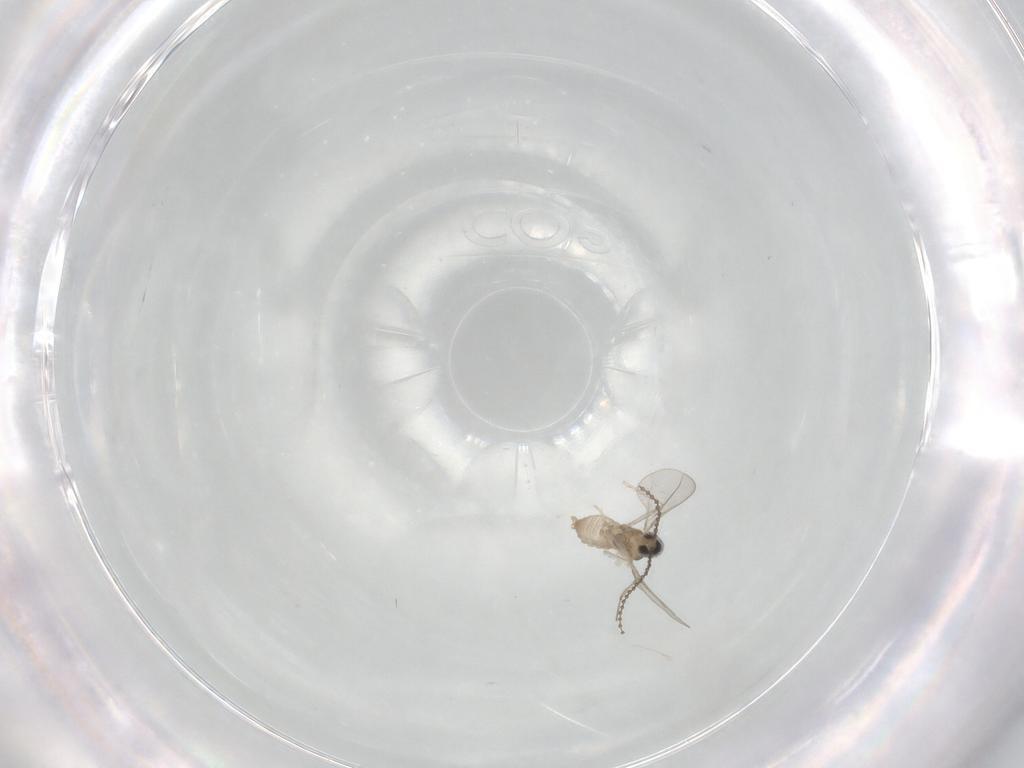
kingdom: Animalia
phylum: Arthropoda
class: Insecta
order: Diptera
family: Cecidomyiidae
